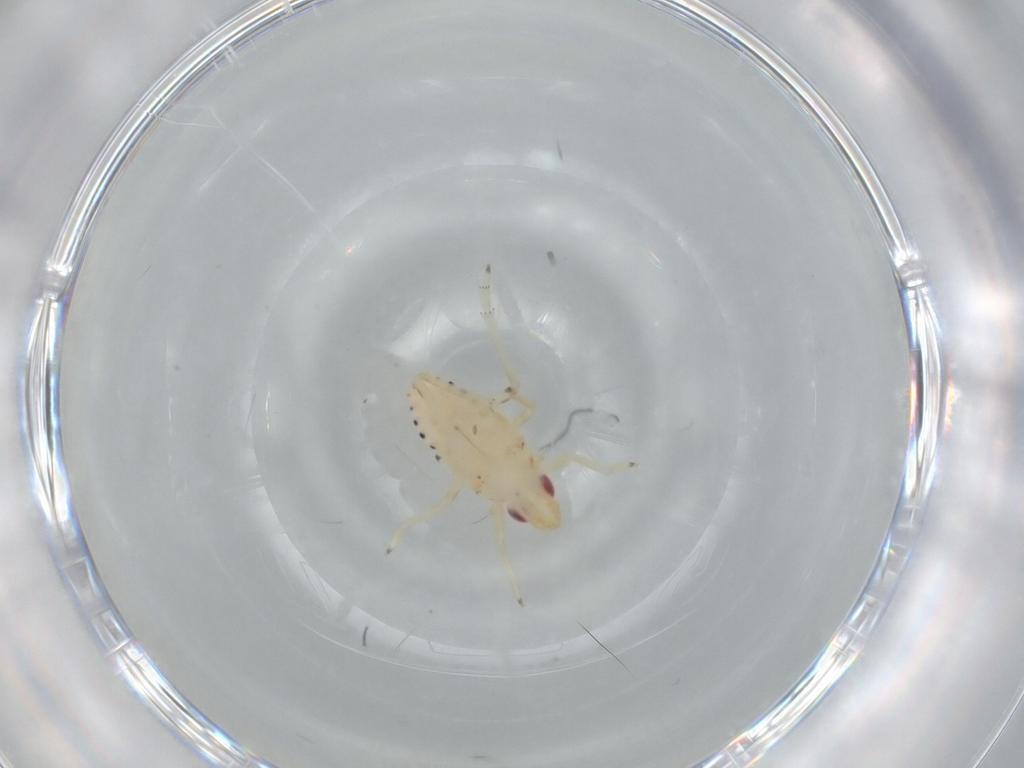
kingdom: Animalia
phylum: Arthropoda
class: Insecta
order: Hemiptera
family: Tropiduchidae
